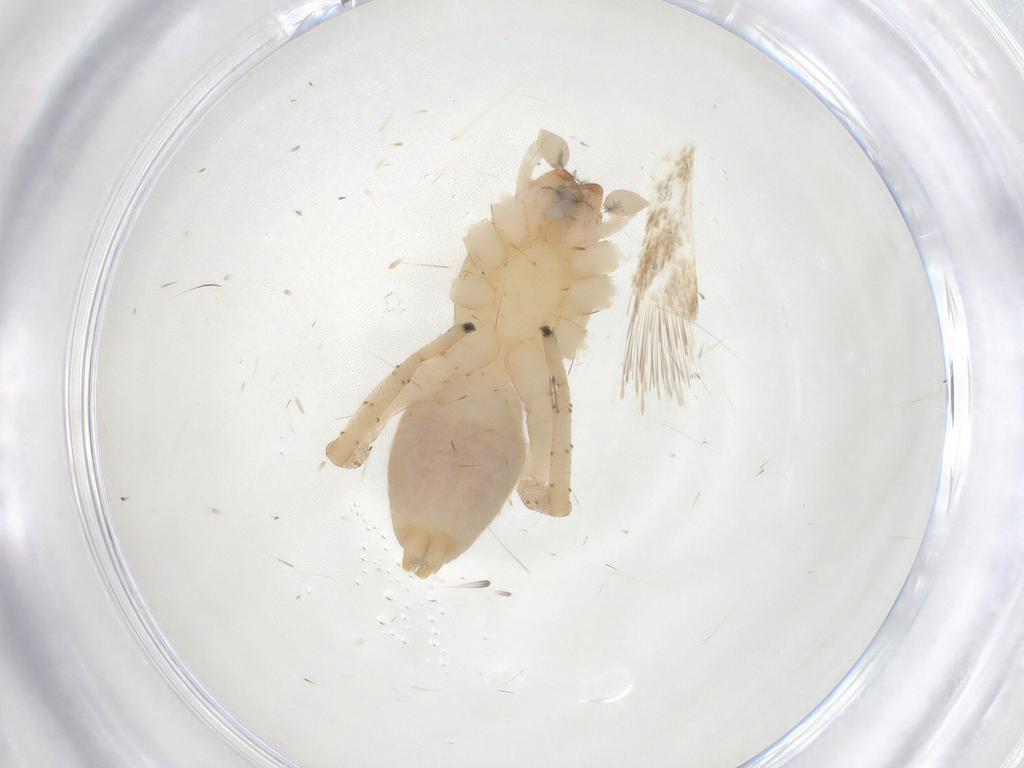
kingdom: Animalia
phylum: Arthropoda
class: Arachnida
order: Araneae
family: Clubionidae
